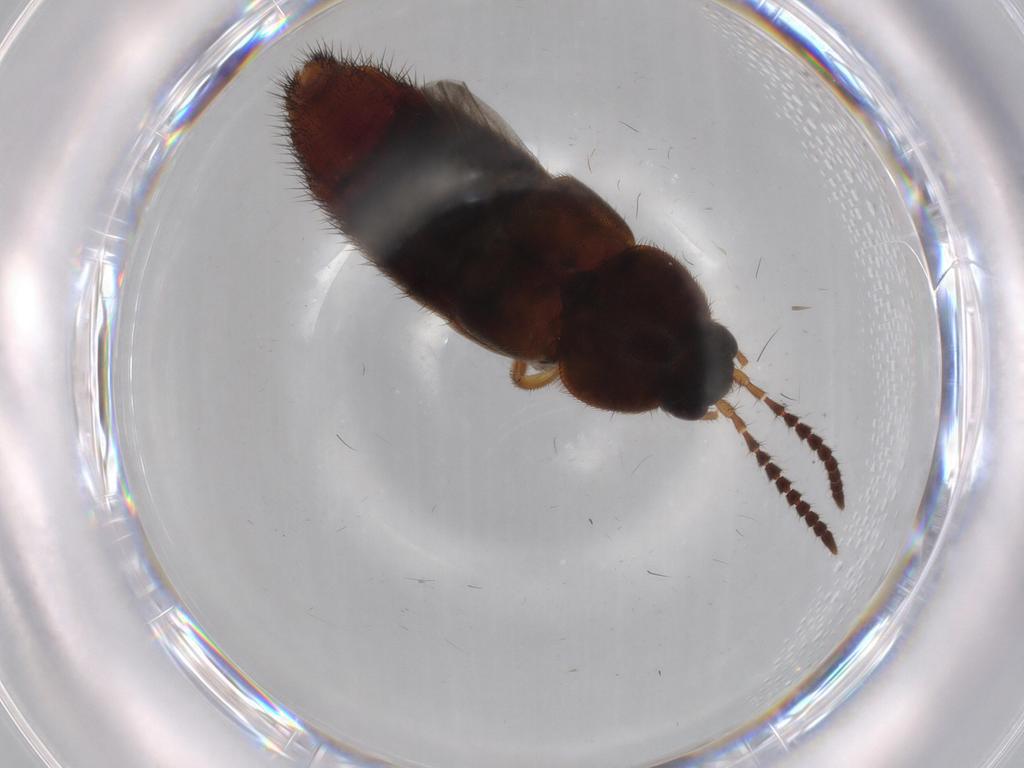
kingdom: Animalia
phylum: Arthropoda
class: Insecta
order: Coleoptera
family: Staphylinidae
